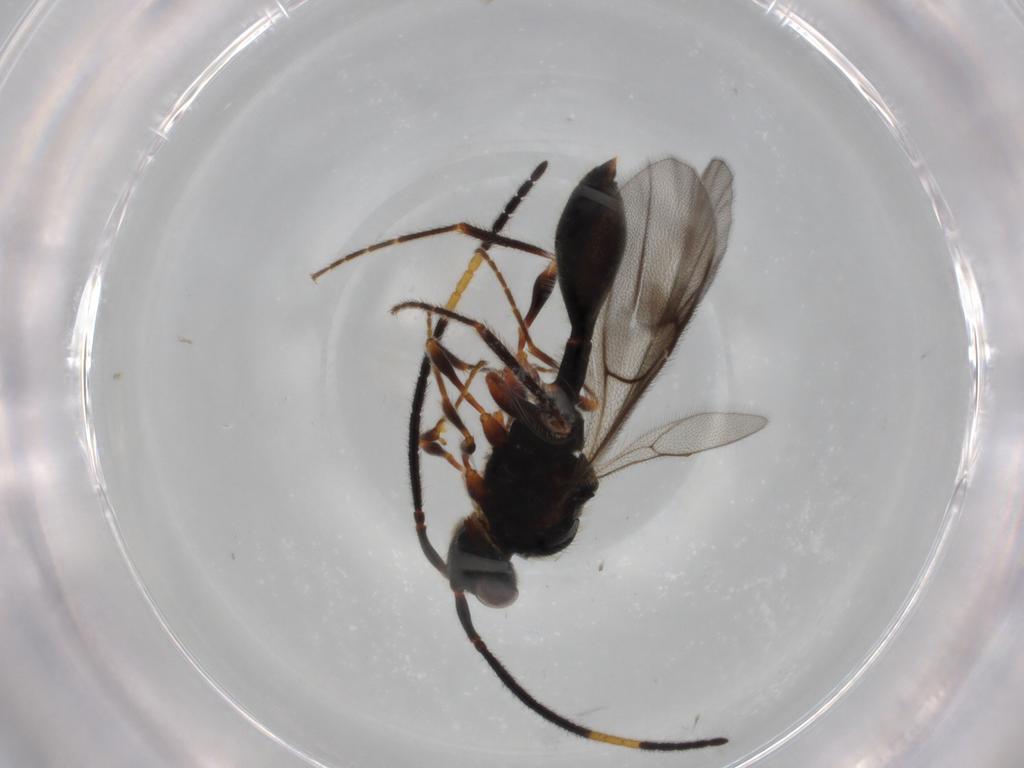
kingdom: Animalia
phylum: Arthropoda
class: Insecta
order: Hymenoptera
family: Diapriidae
